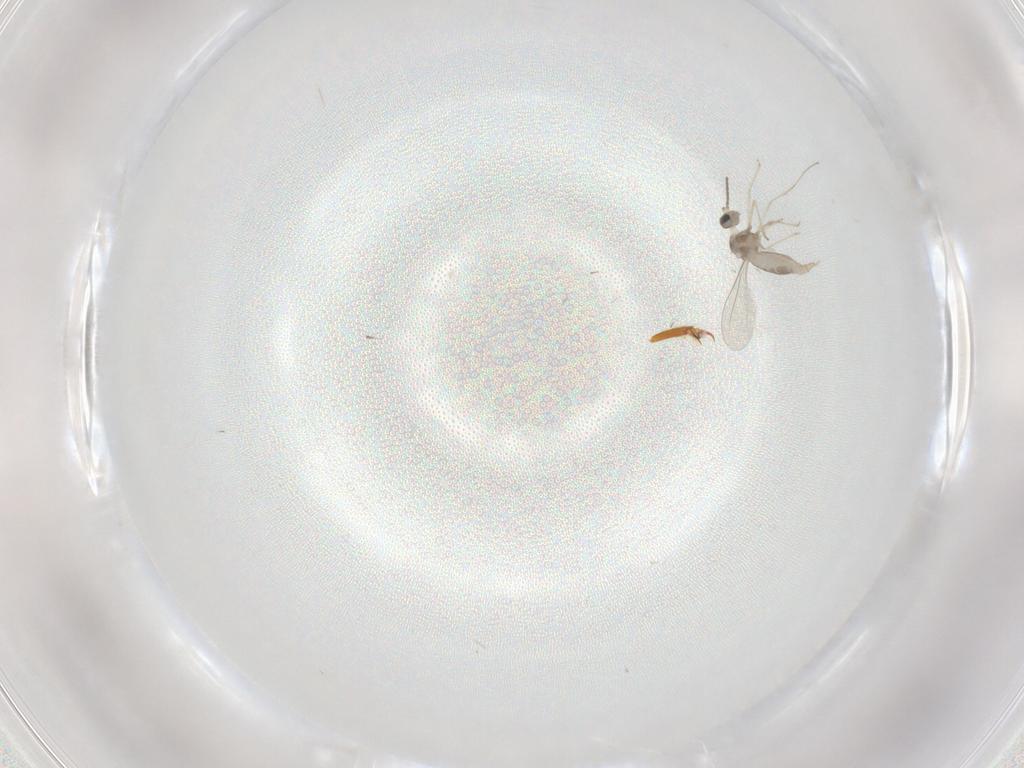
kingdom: Animalia
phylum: Arthropoda
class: Insecta
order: Diptera
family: Cecidomyiidae
